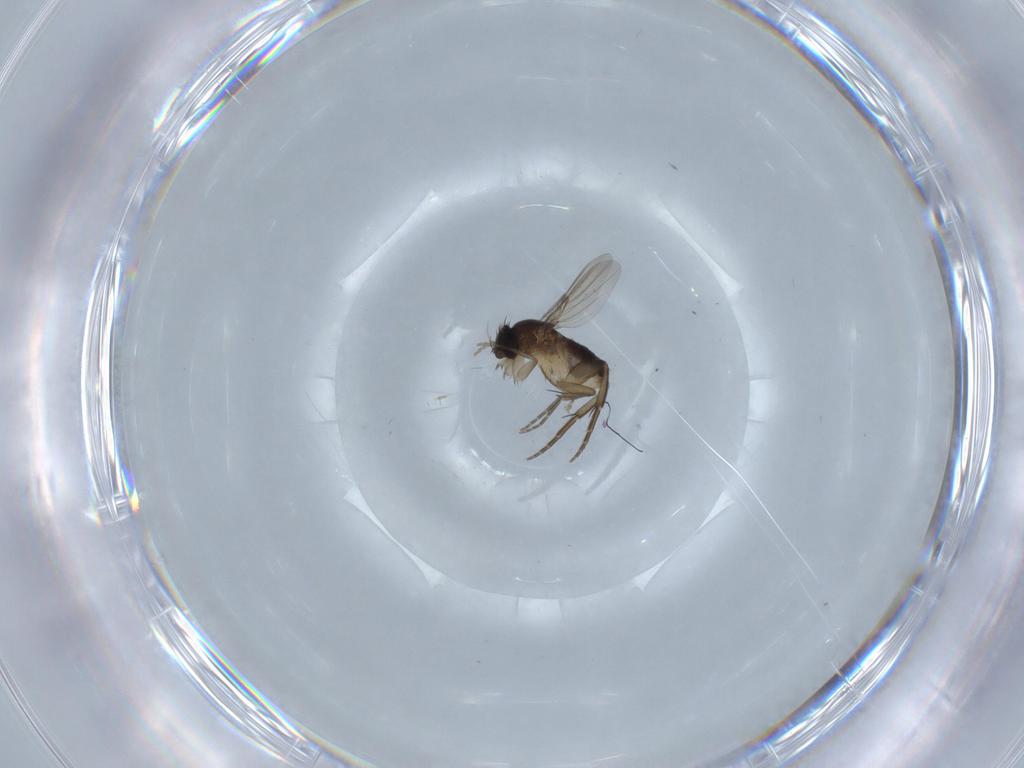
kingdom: Animalia
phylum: Arthropoda
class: Insecta
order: Diptera
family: Phoridae
